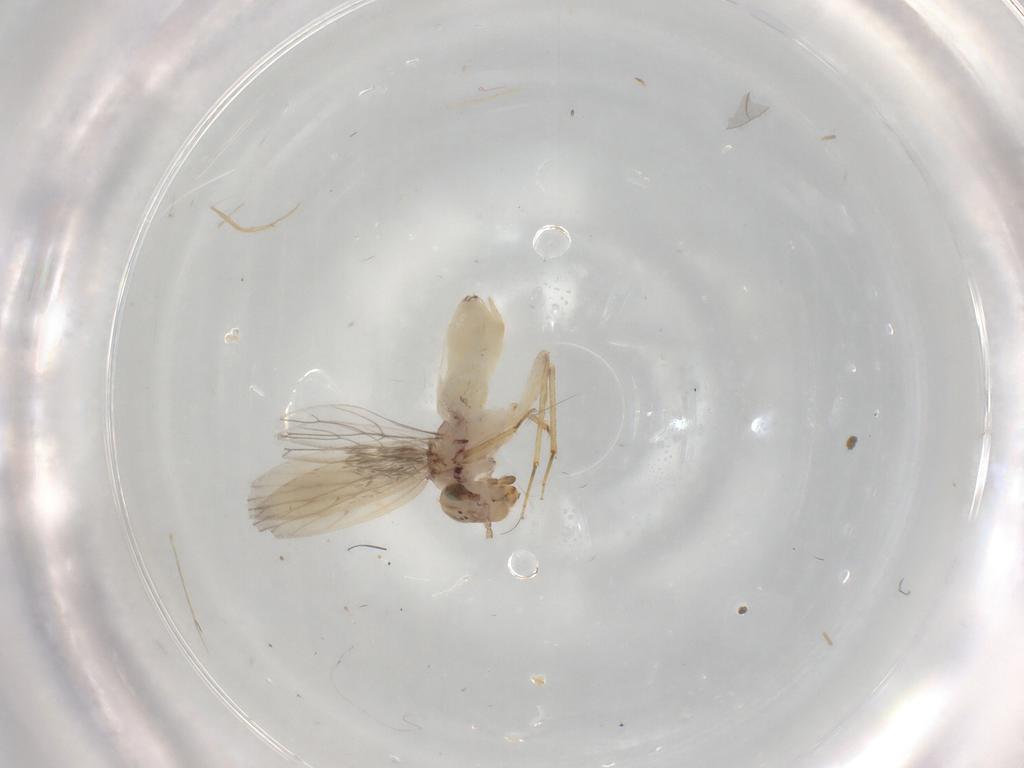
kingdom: Animalia
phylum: Arthropoda
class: Insecta
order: Psocodea
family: Lepidopsocidae
